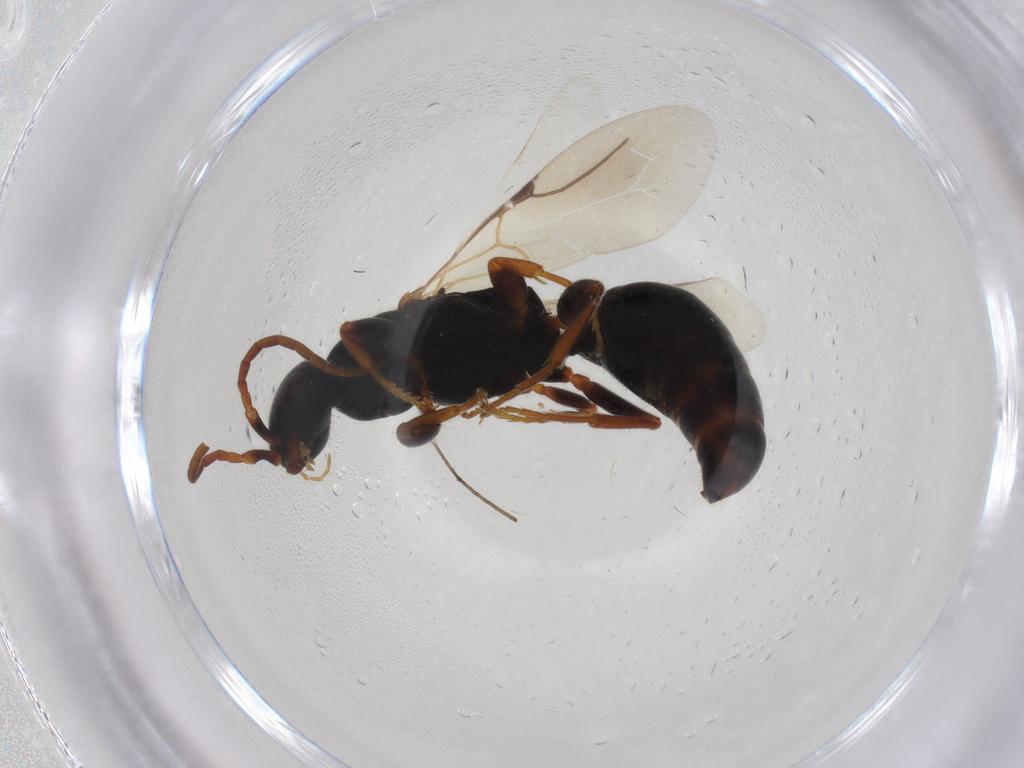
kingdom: Animalia
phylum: Arthropoda
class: Insecta
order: Hymenoptera
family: Bethylidae
